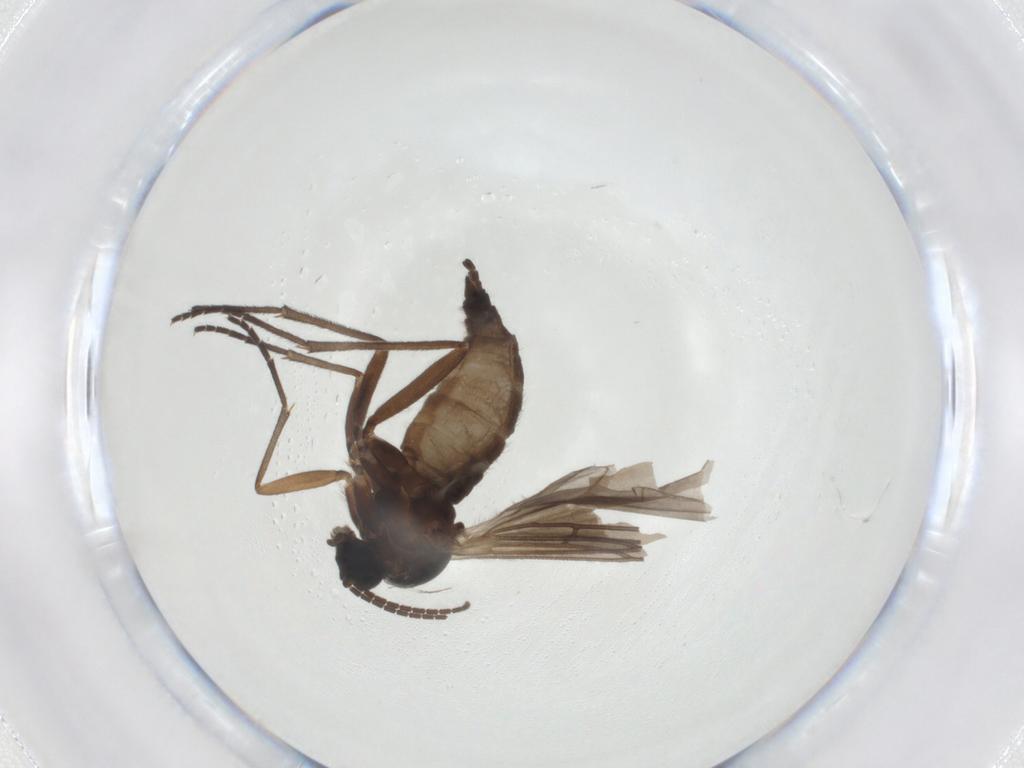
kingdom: Animalia
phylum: Arthropoda
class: Insecta
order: Diptera
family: Sciaridae
